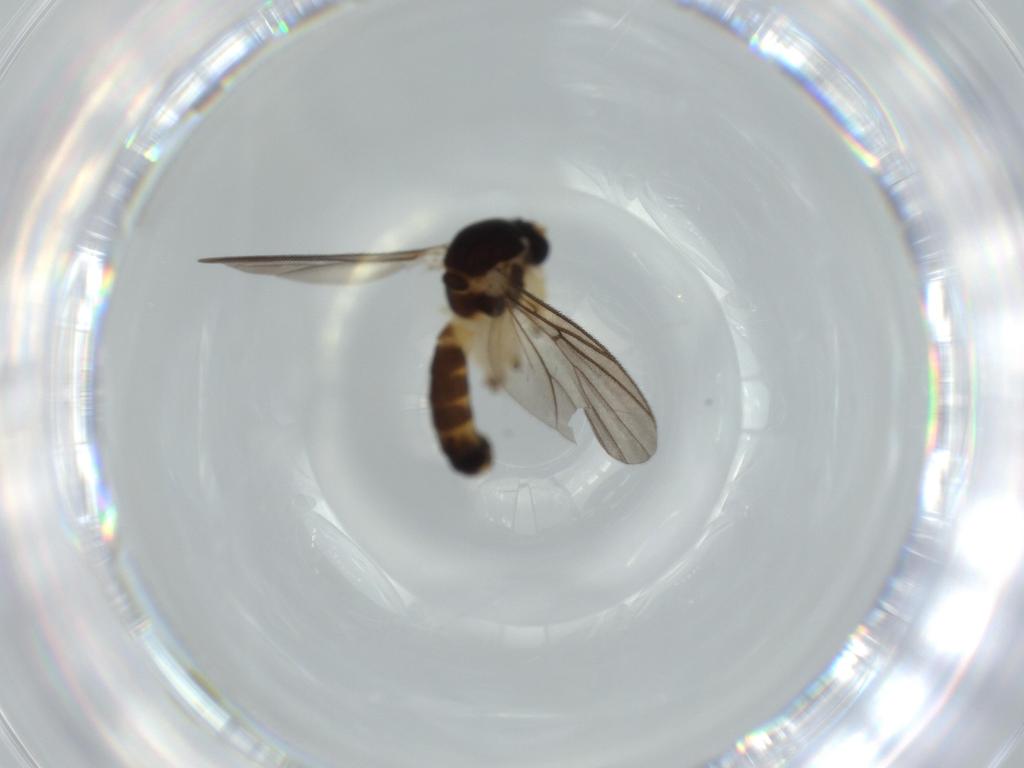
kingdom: Animalia
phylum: Arthropoda
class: Insecta
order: Diptera
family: Mycetophilidae
